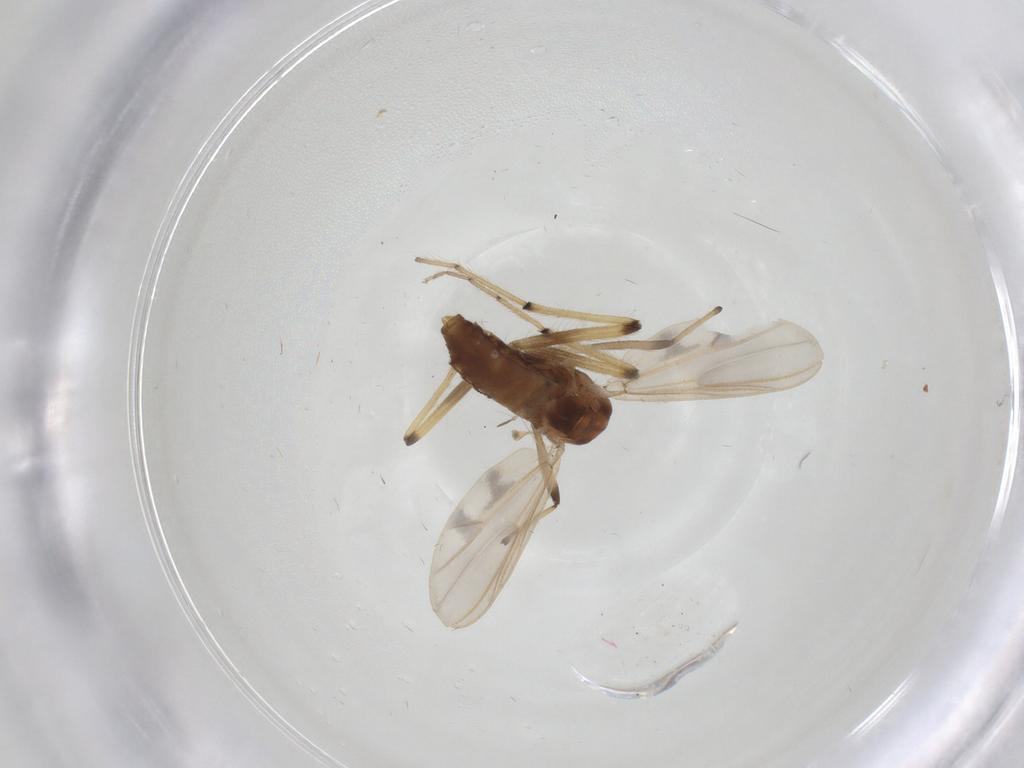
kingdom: Animalia
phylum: Arthropoda
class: Insecta
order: Diptera
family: Chironomidae
